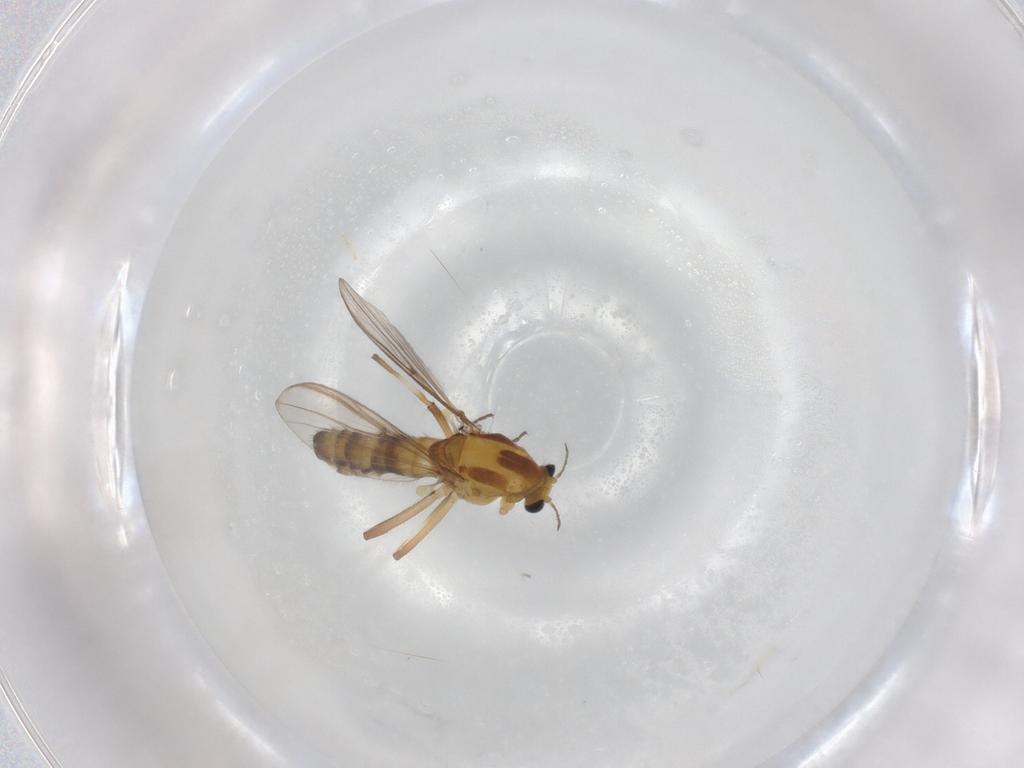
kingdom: Animalia
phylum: Arthropoda
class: Insecta
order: Diptera
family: Chironomidae
